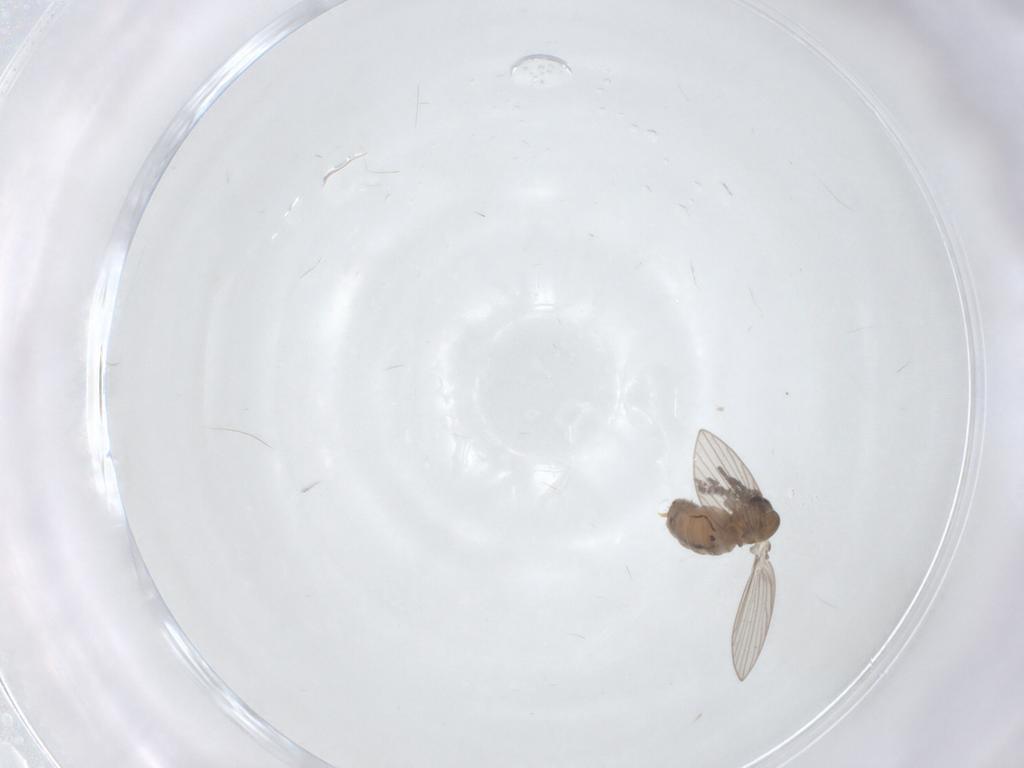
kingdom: Animalia
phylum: Arthropoda
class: Insecta
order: Diptera
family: Psychodidae
